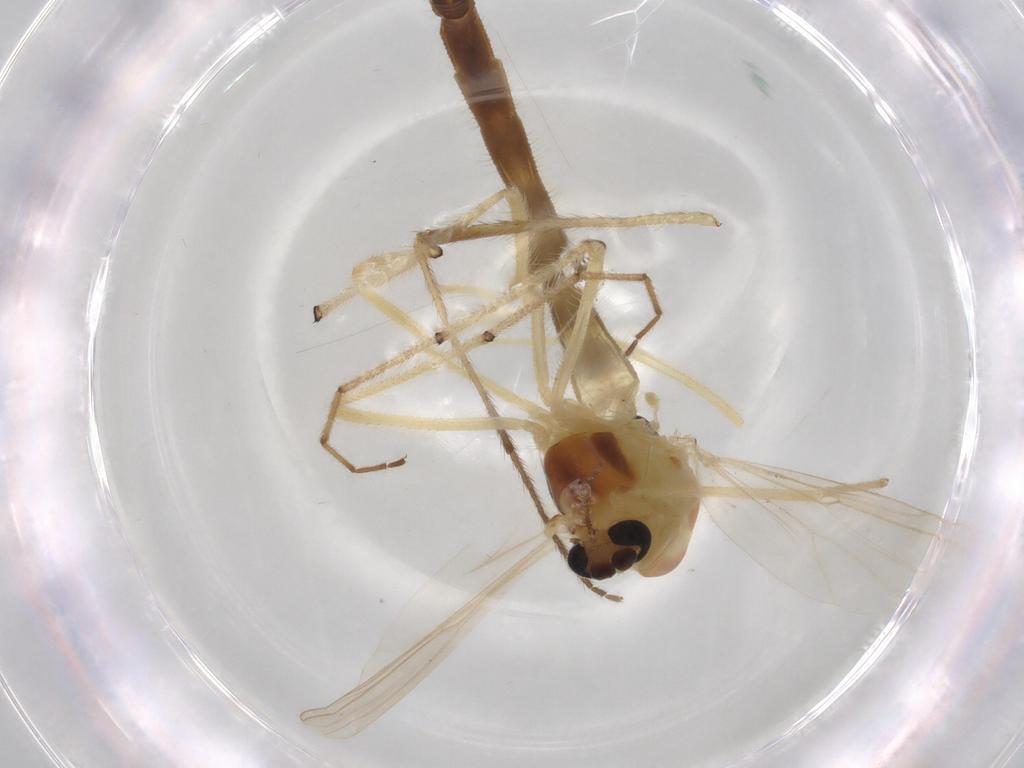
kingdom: Animalia
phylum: Arthropoda
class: Insecta
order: Diptera
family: Chironomidae
